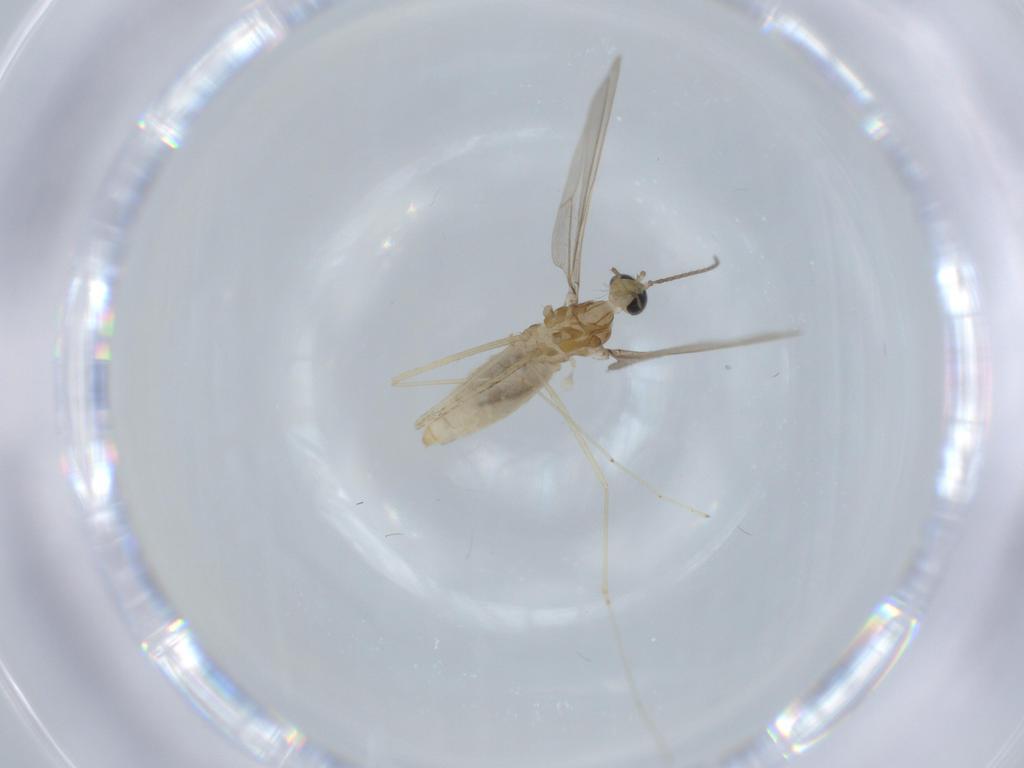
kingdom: Animalia
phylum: Arthropoda
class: Insecta
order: Diptera
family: Cecidomyiidae
